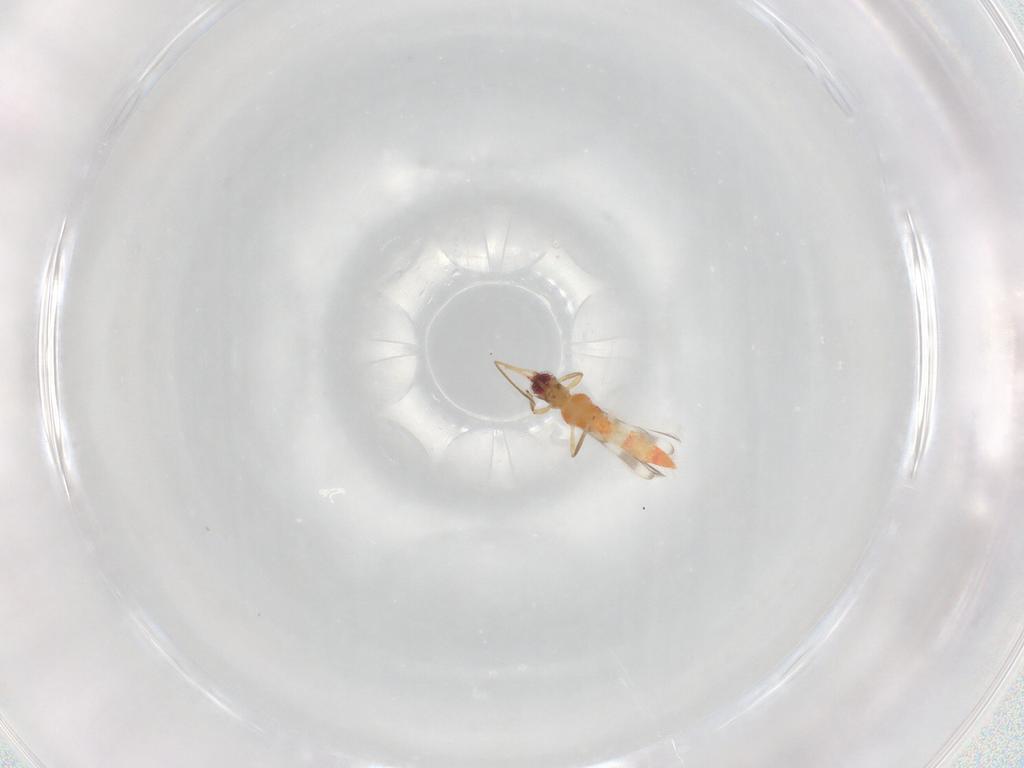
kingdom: Animalia
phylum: Arthropoda
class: Insecta
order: Thysanoptera
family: Aeolothripidae
